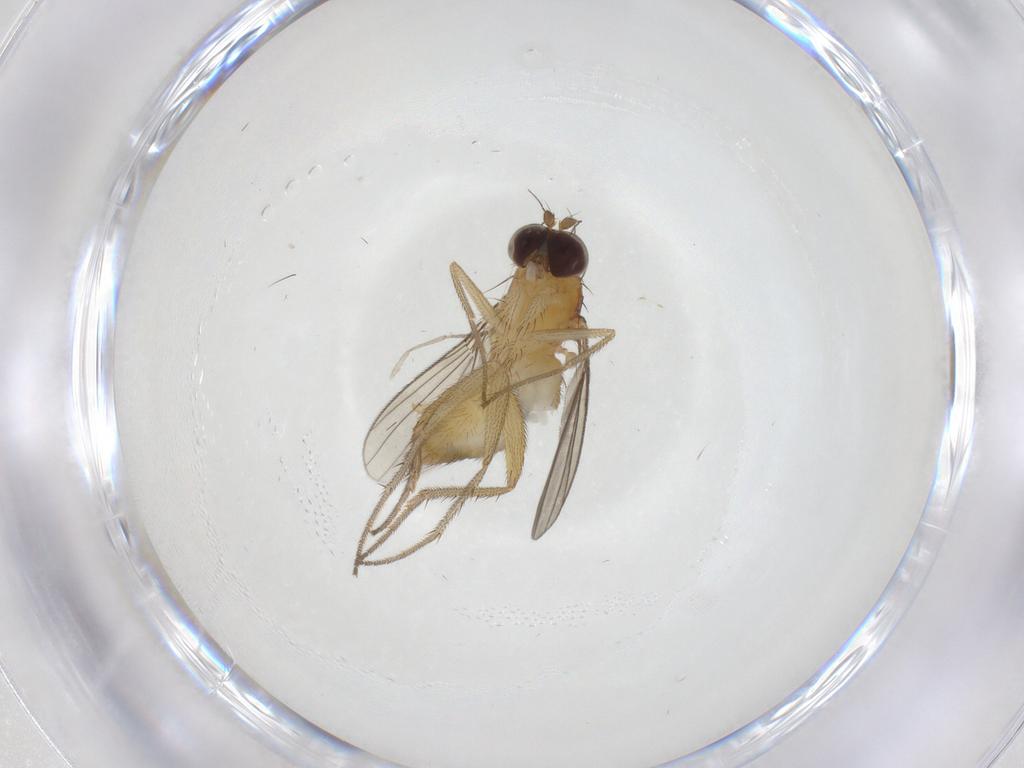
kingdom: Animalia
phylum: Arthropoda
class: Insecta
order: Diptera
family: Dolichopodidae
